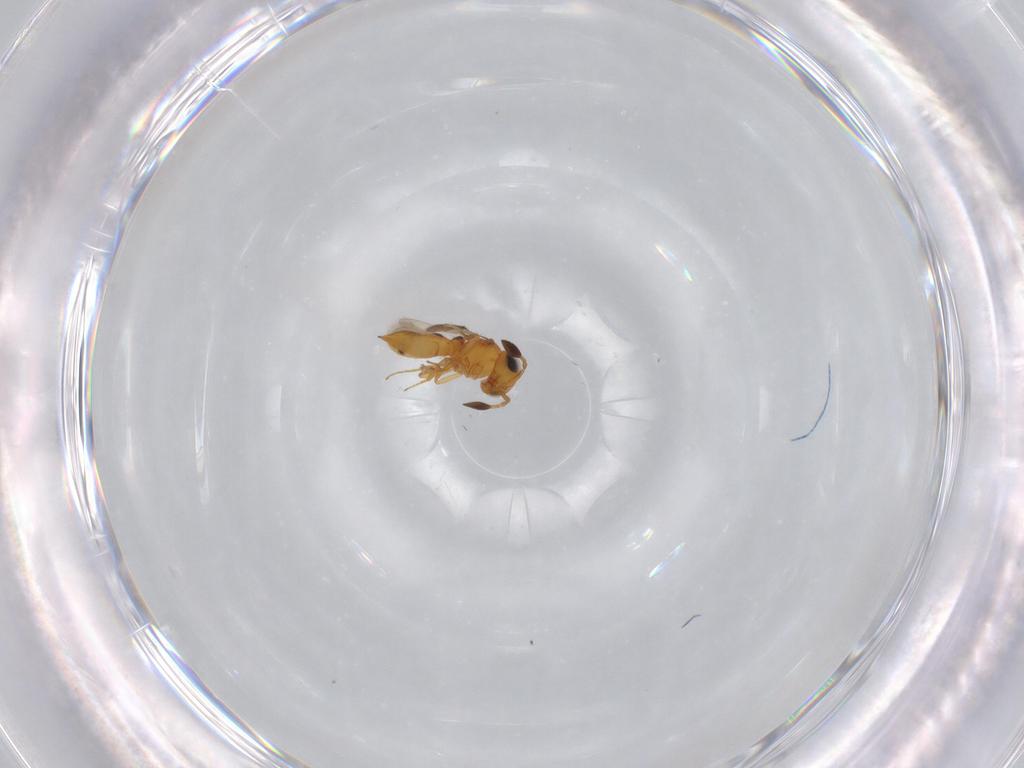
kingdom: Animalia
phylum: Arthropoda
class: Insecta
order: Hymenoptera
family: Scelionidae
